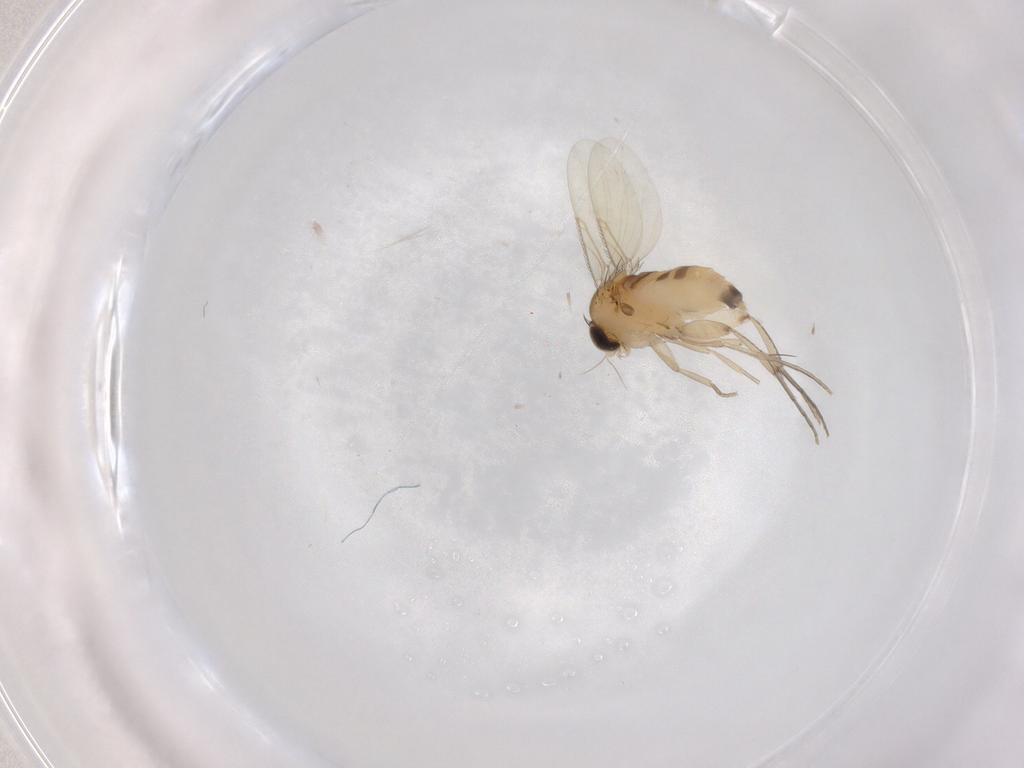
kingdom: Animalia
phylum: Arthropoda
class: Insecta
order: Diptera
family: Phoridae
